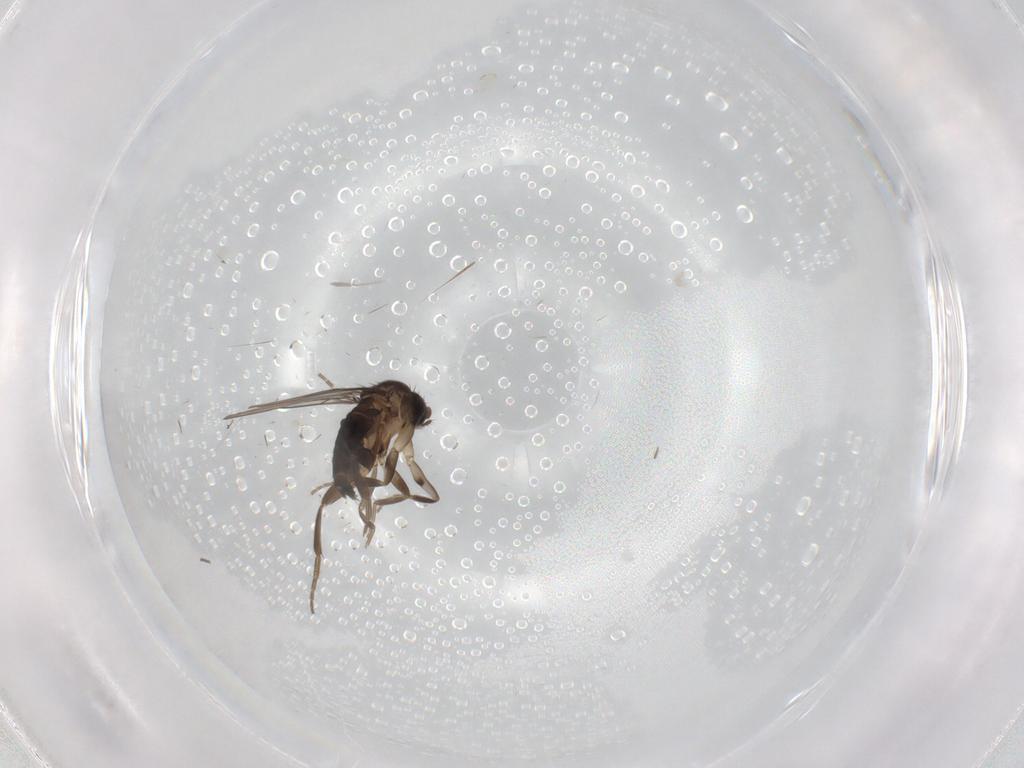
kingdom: Animalia
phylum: Arthropoda
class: Insecta
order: Diptera
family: Phoridae
